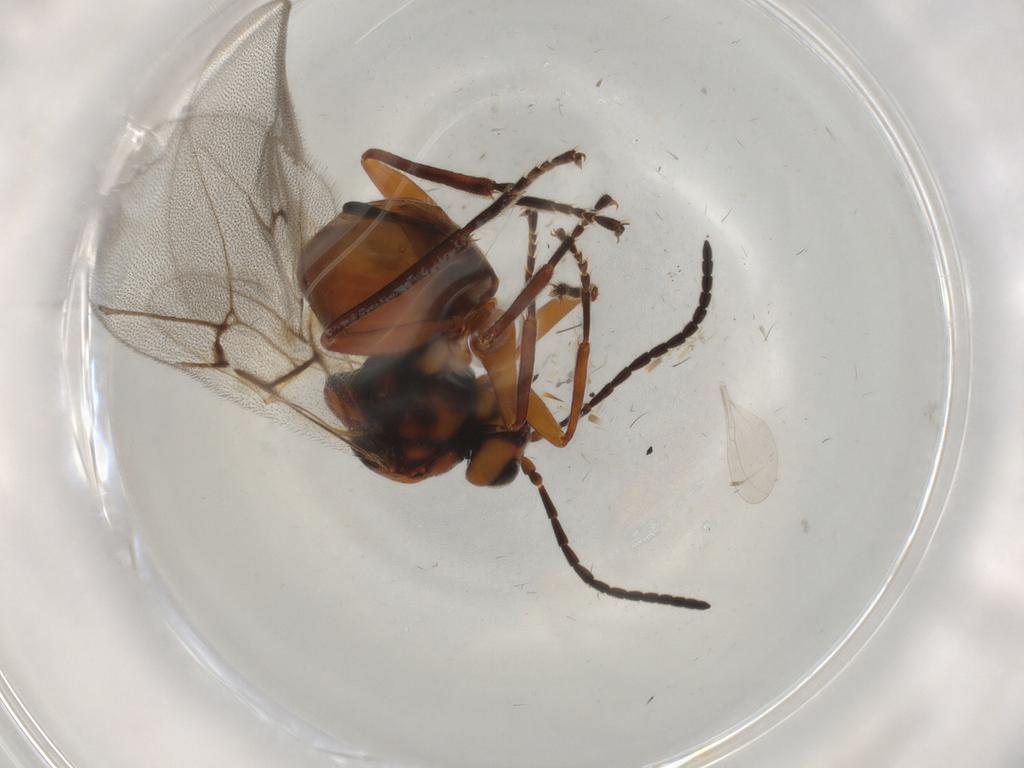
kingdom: Animalia
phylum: Arthropoda
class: Insecta
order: Hymenoptera
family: Cynipidae
